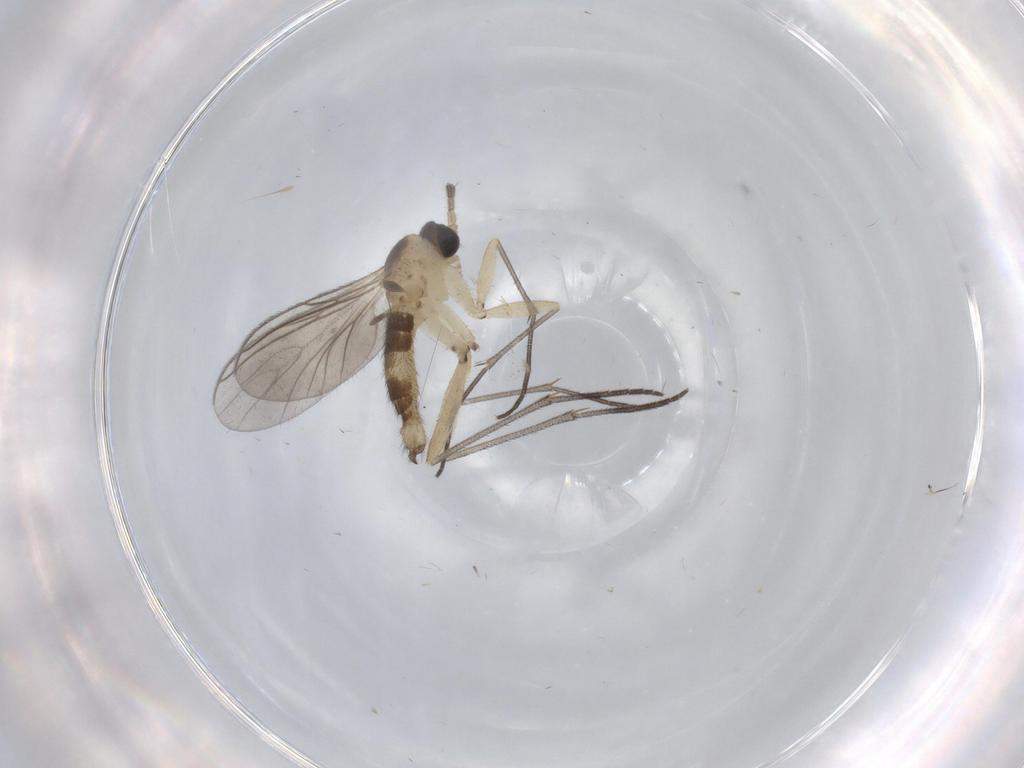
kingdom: Animalia
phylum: Arthropoda
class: Insecta
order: Diptera
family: Sciaridae
